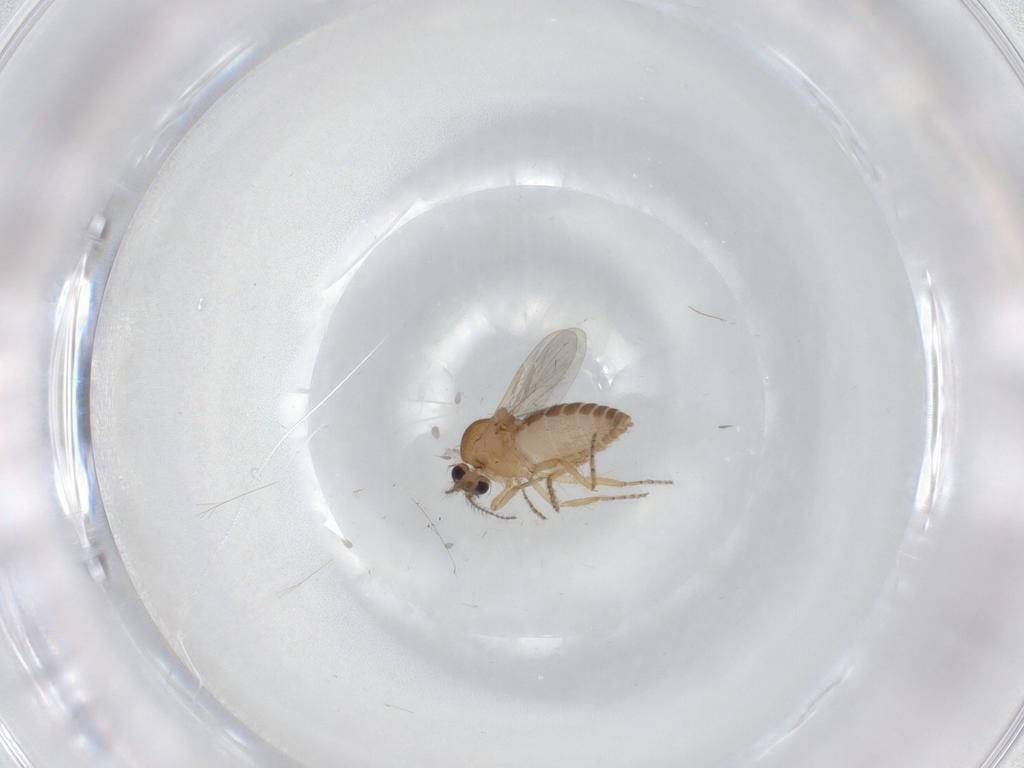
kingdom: Animalia
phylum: Arthropoda
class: Insecta
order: Diptera
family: Ceratopogonidae
